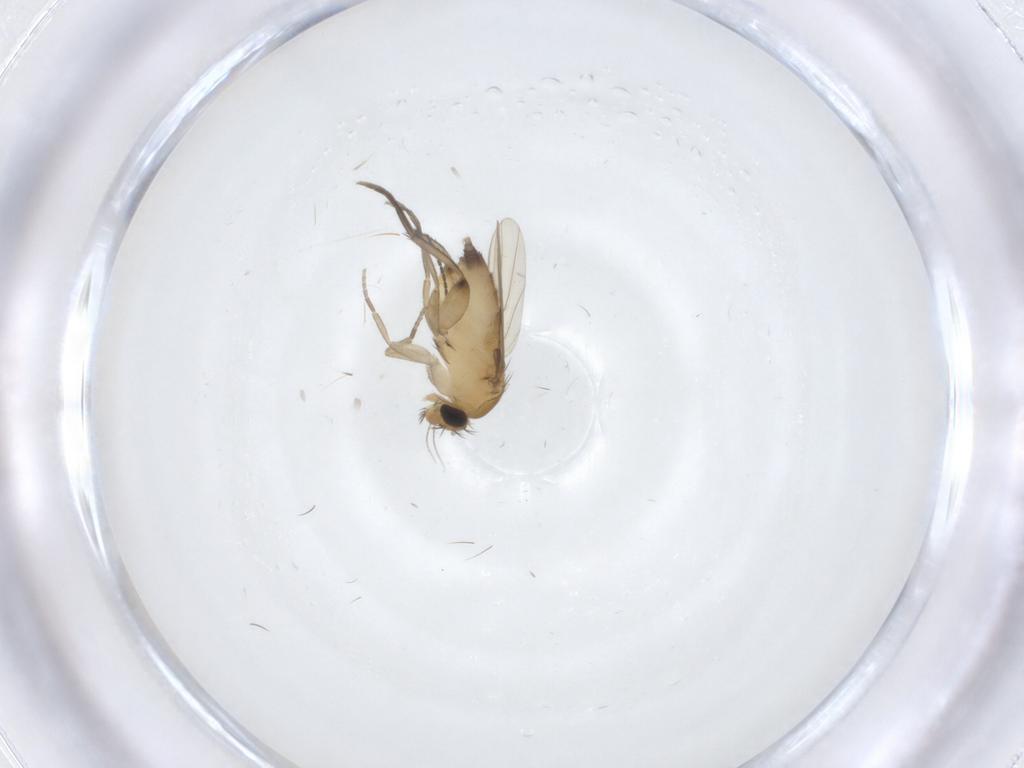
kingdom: Animalia
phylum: Arthropoda
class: Insecta
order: Diptera
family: Phoridae
